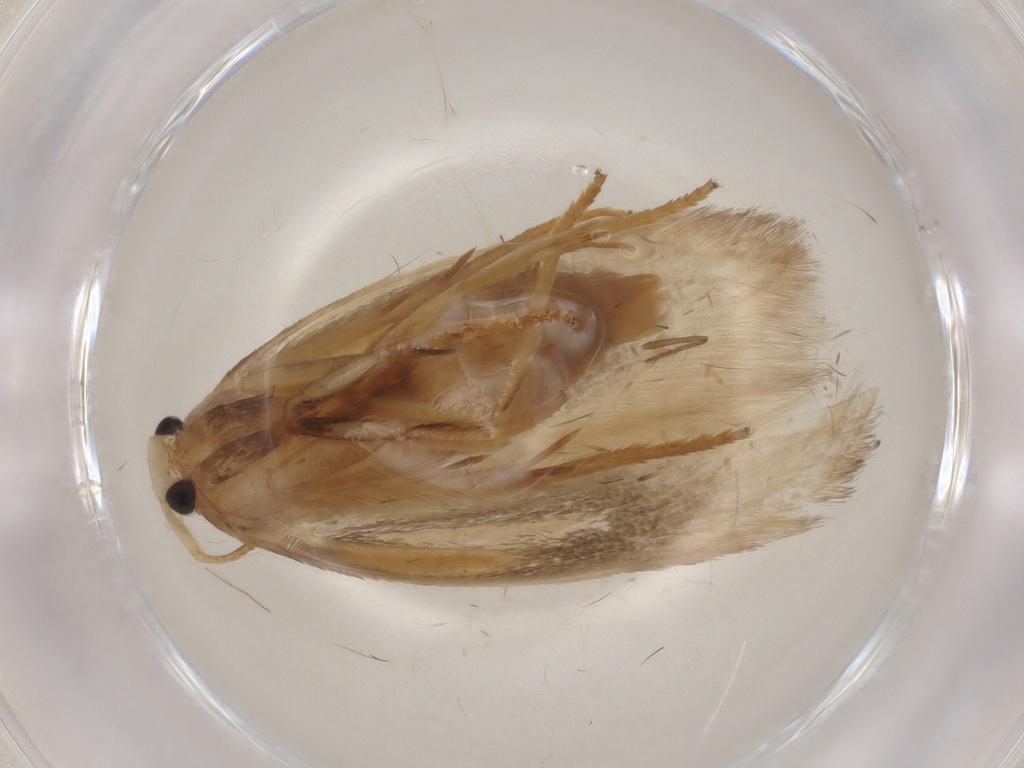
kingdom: Animalia
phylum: Arthropoda
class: Insecta
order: Lepidoptera
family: Geometridae
